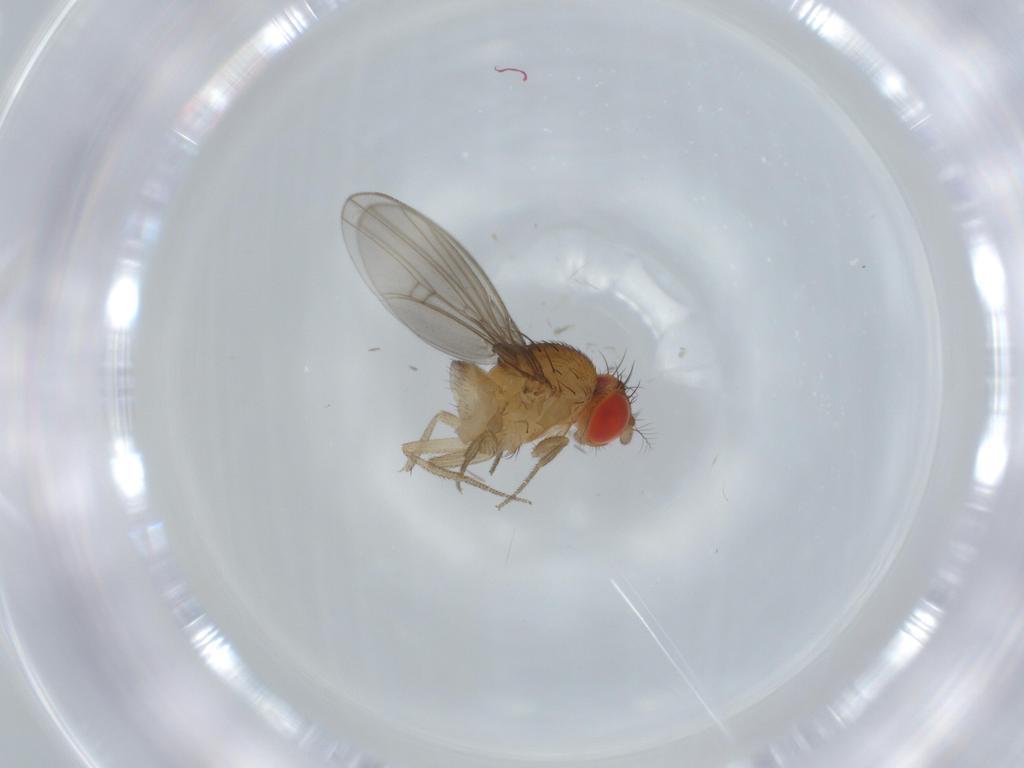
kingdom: Animalia
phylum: Arthropoda
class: Insecta
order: Diptera
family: Drosophilidae
